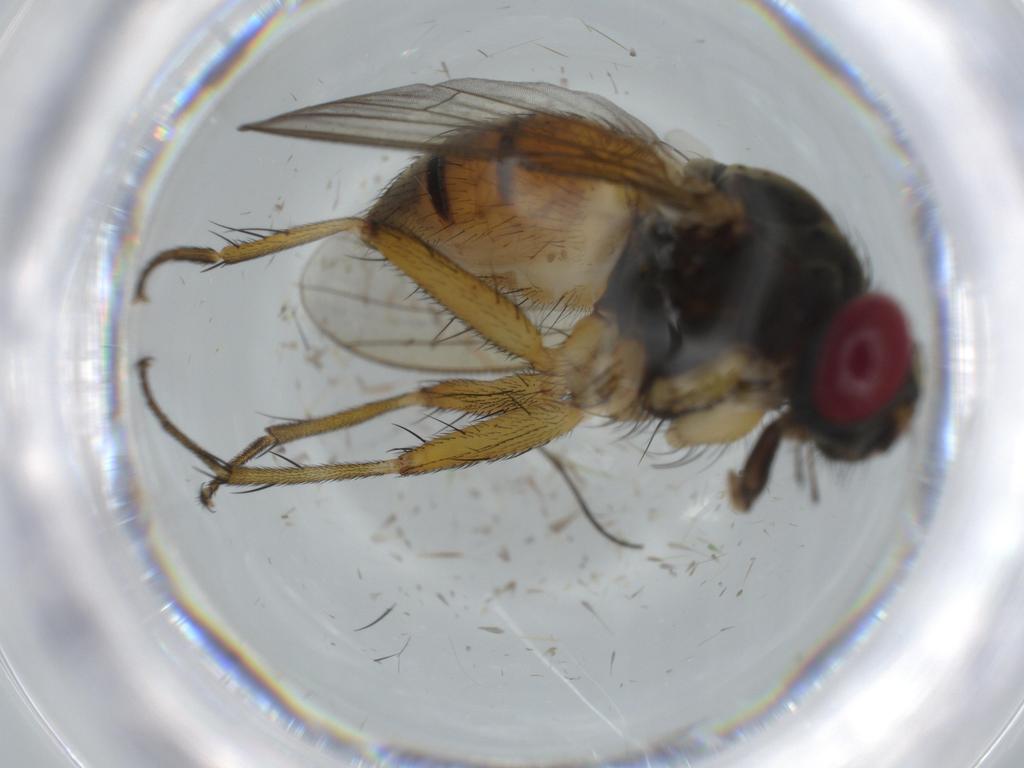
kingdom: Animalia
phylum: Arthropoda
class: Insecta
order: Diptera
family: Muscidae
